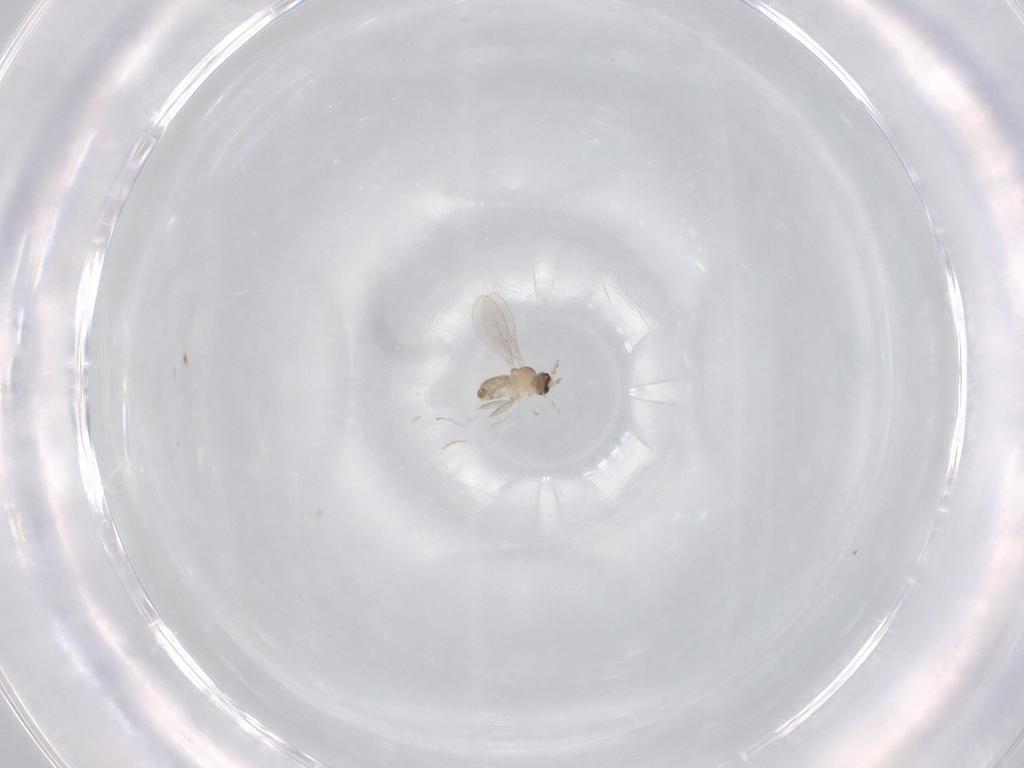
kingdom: Animalia
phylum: Arthropoda
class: Insecta
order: Diptera
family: Cecidomyiidae
